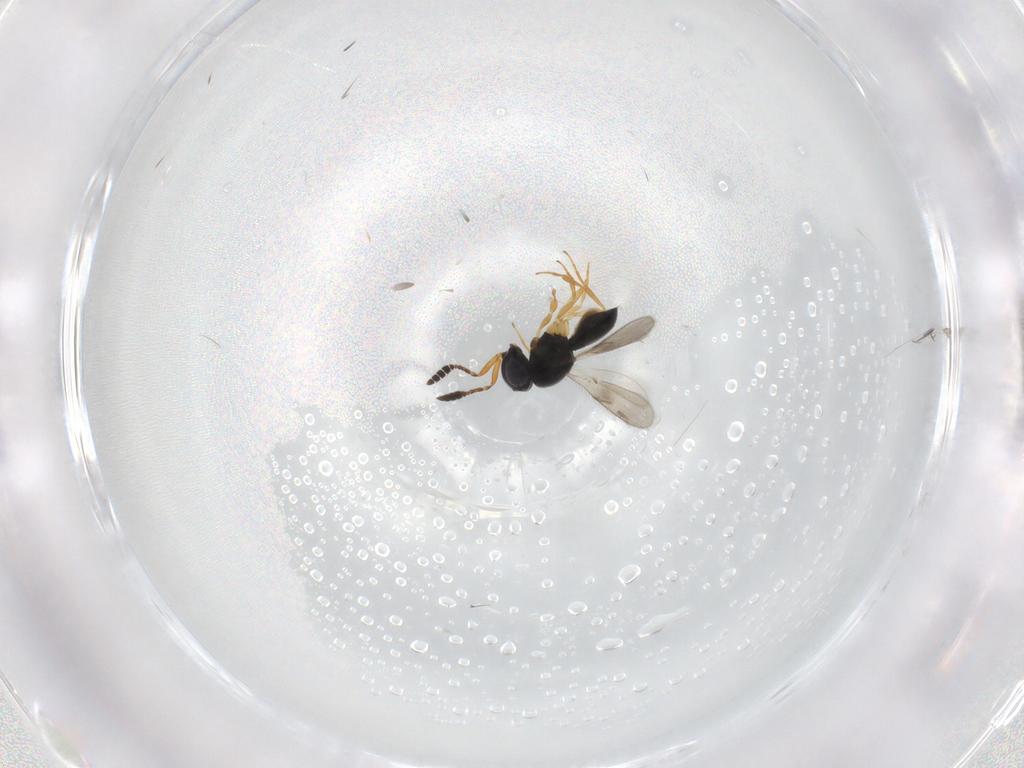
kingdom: Animalia
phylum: Arthropoda
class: Insecta
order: Hymenoptera
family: Scelionidae
